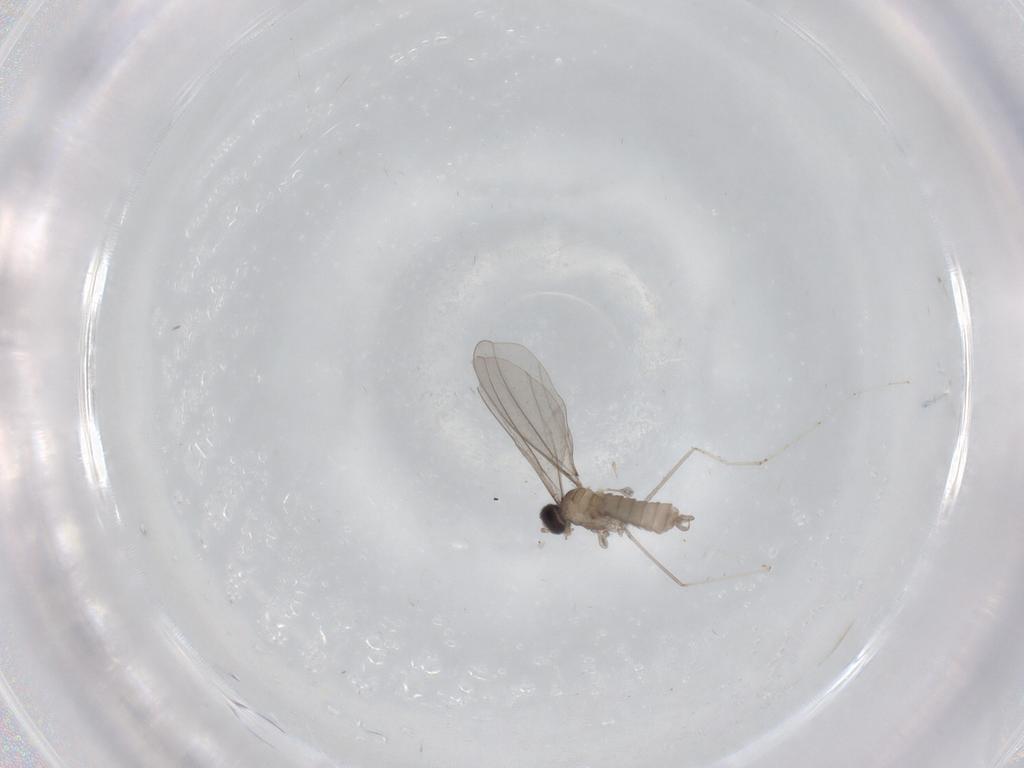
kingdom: Animalia
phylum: Arthropoda
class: Insecta
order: Diptera
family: Cecidomyiidae
